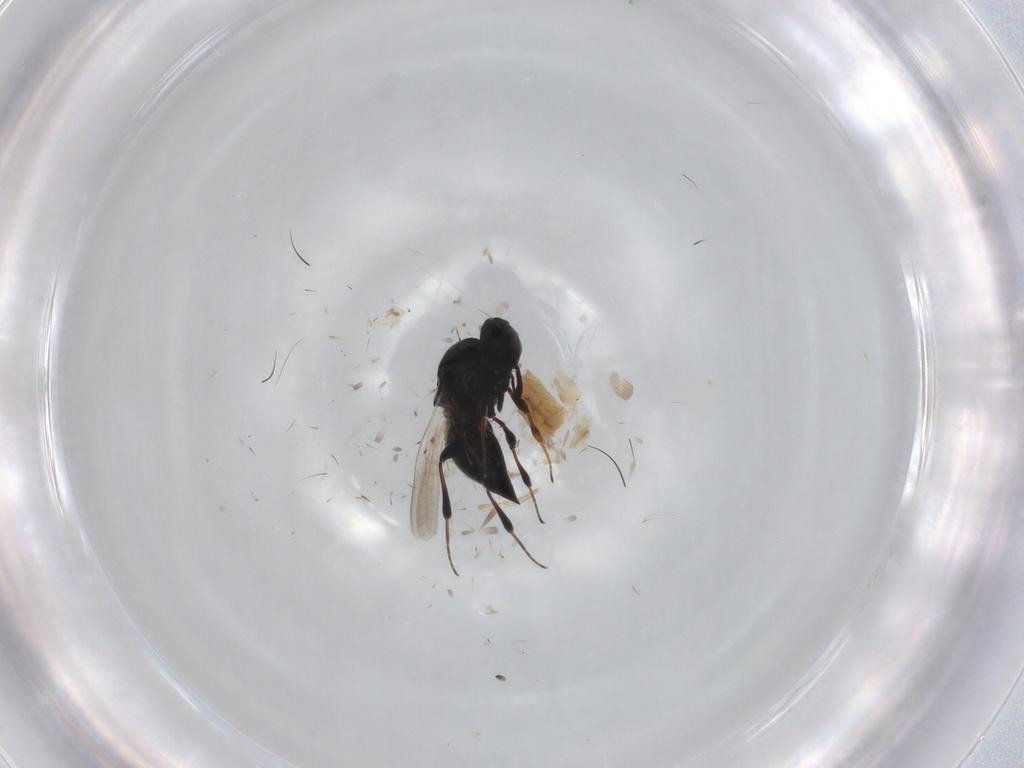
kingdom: Animalia
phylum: Arthropoda
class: Insecta
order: Hymenoptera
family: Platygastridae
